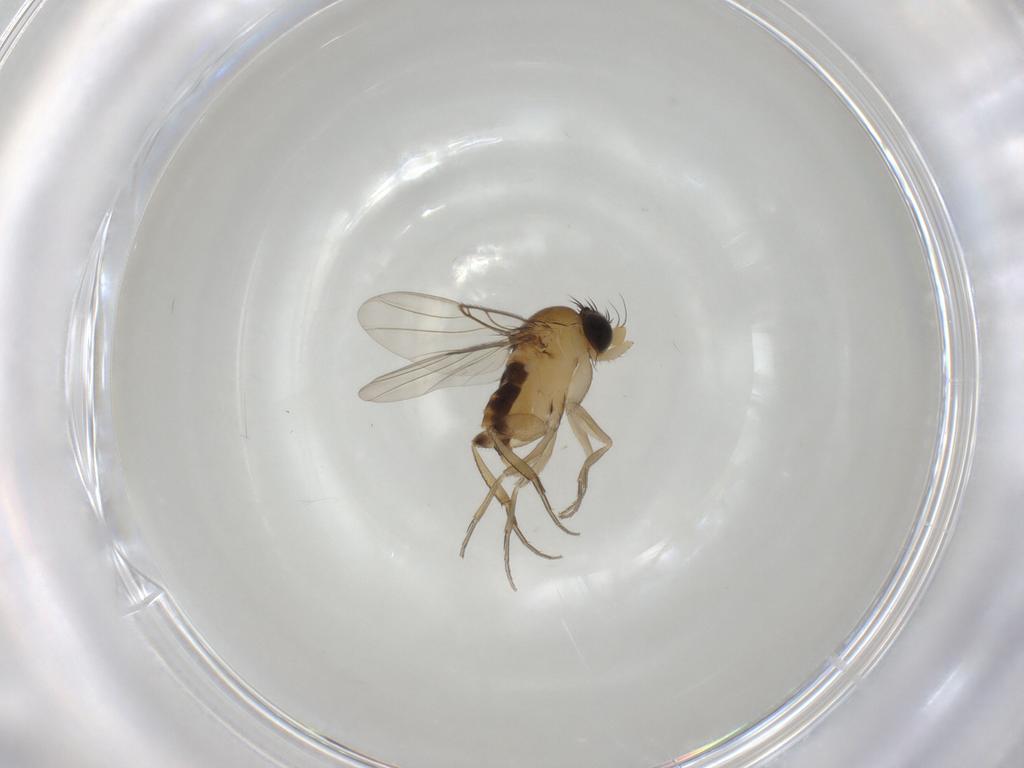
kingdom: Animalia
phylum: Arthropoda
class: Insecta
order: Diptera
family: Phoridae
